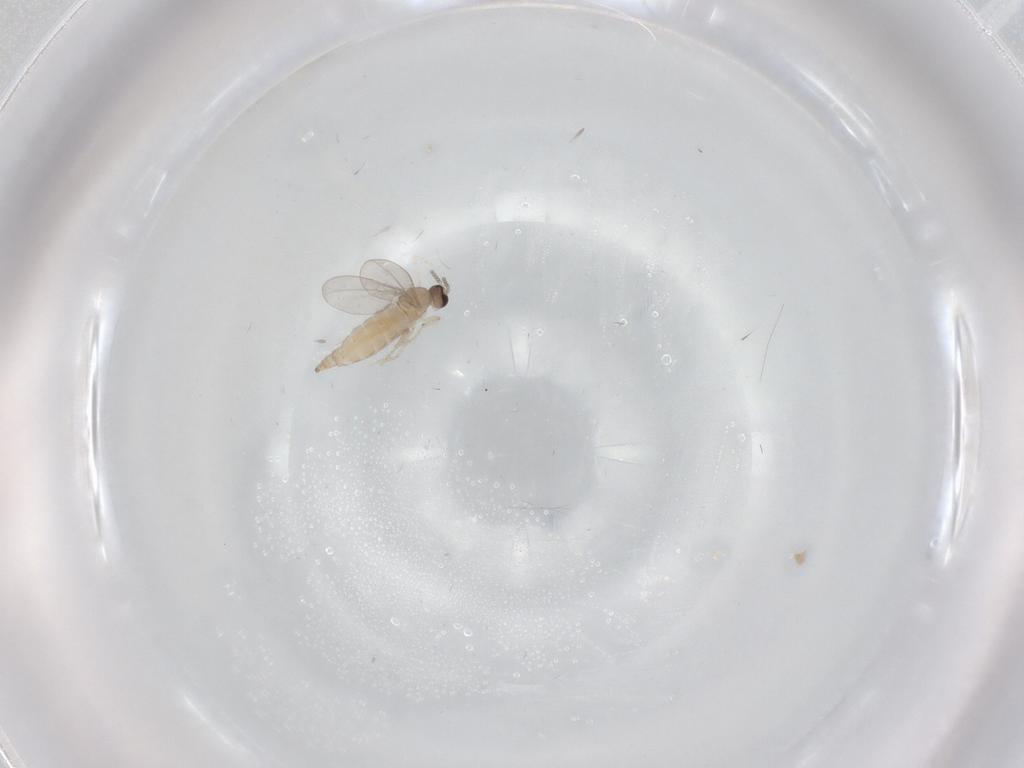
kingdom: Animalia
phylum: Arthropoda
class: Insecta
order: Diptera
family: Cecidomyiidae
